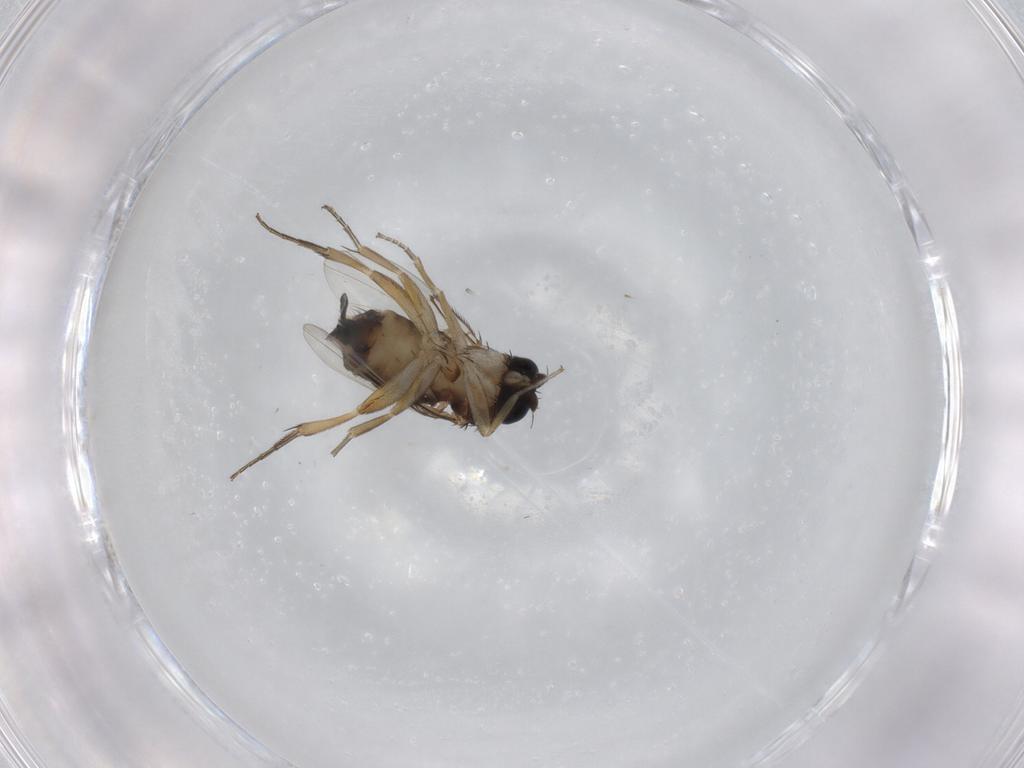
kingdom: Animalia
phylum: Arthropoda
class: Insecta
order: Diptera
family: Phoridae
